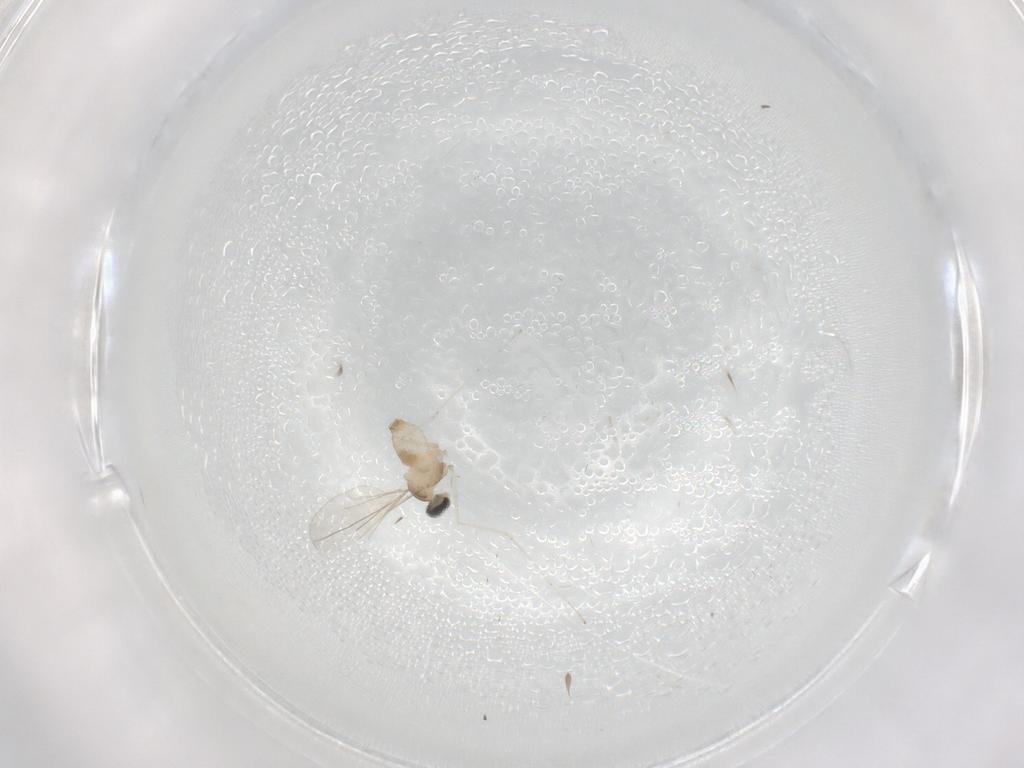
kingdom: Animalia
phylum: Arthropoda
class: Insecta
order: Diptera
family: Cecidomyiidae
